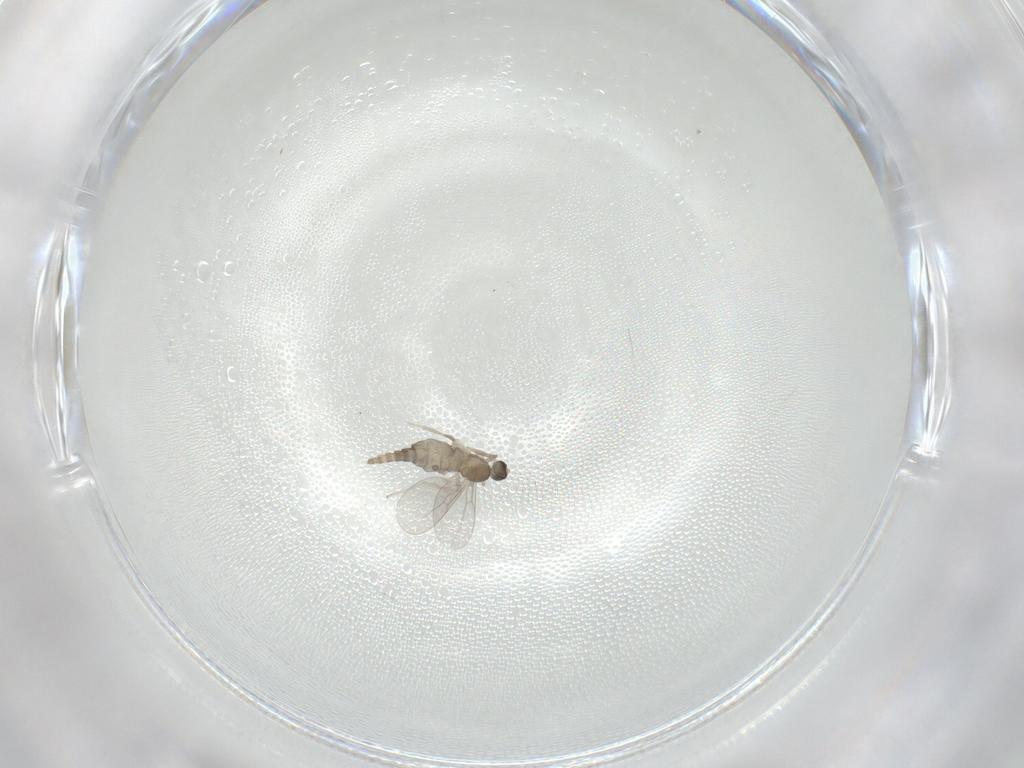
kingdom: Animalia
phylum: Arthropoda
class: Insecta
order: Diptera
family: Cecidomyiidae
